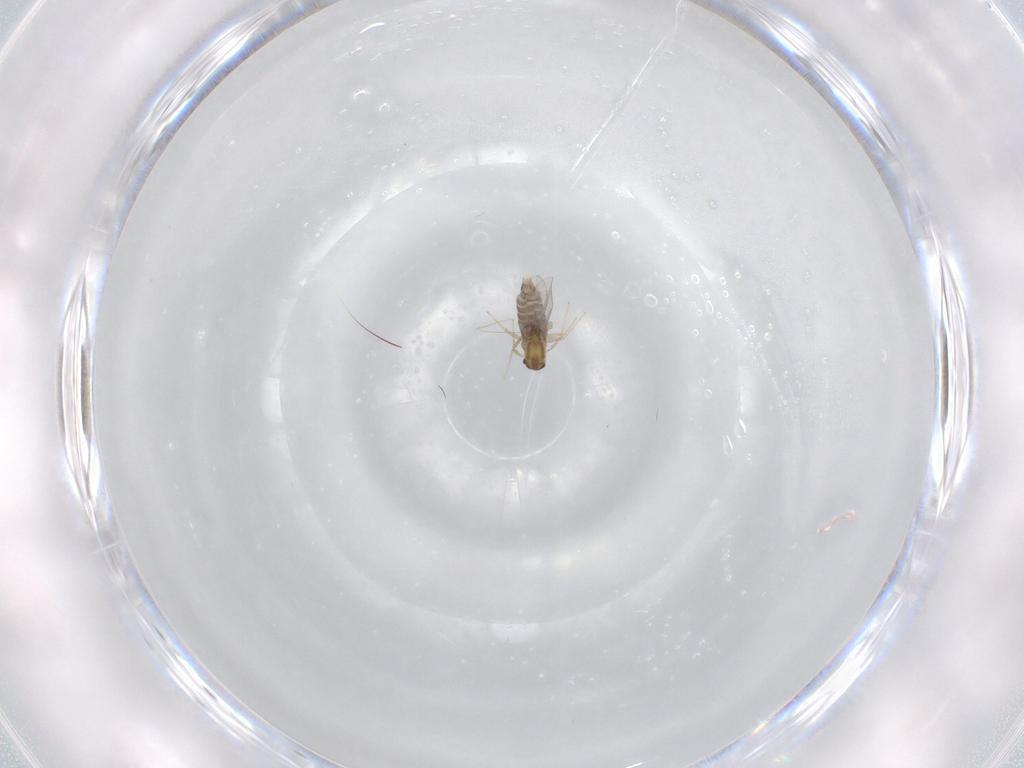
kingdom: Animalia
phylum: Arthropoda
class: Insecta
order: Diptera
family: Chironomidae
